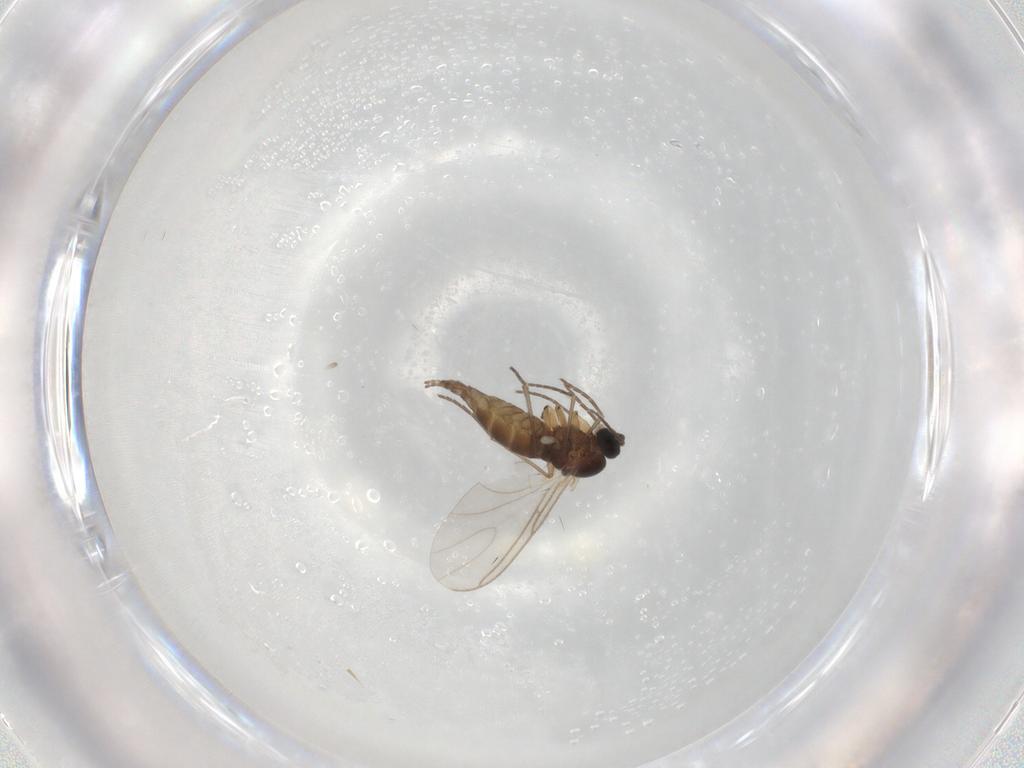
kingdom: Animalia
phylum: Arthropoda
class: Insecta
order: Diptera
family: Sciaridae
